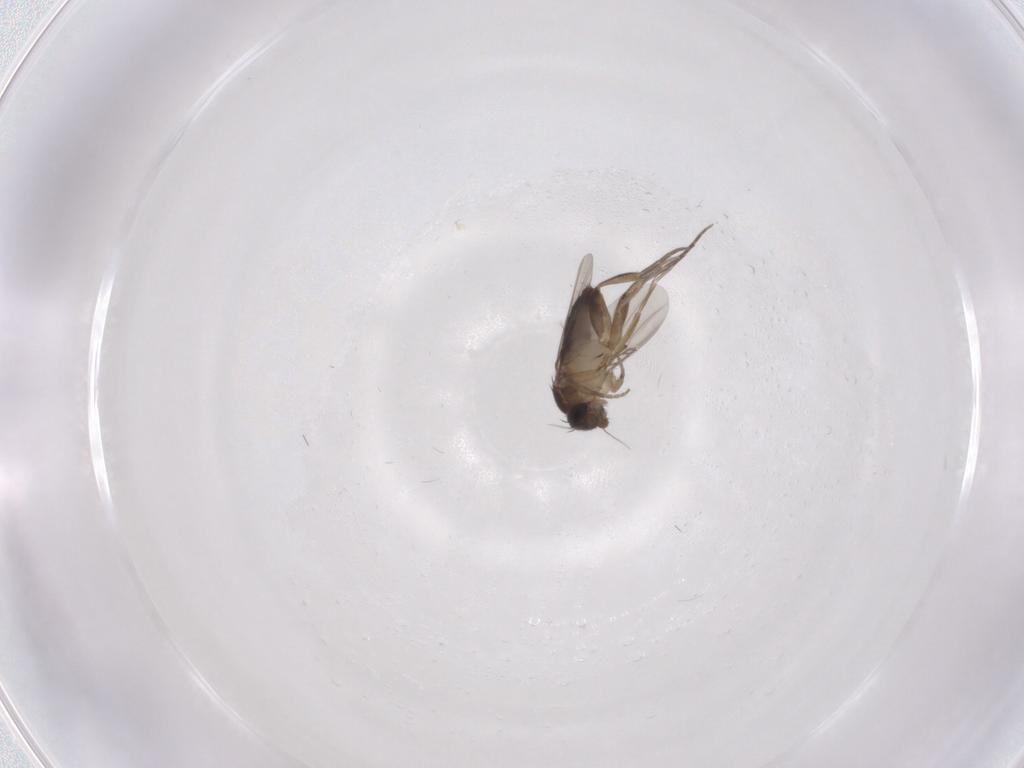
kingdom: Animalia
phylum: Arthropoda
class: Insecta
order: Diptera
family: Phoridae
